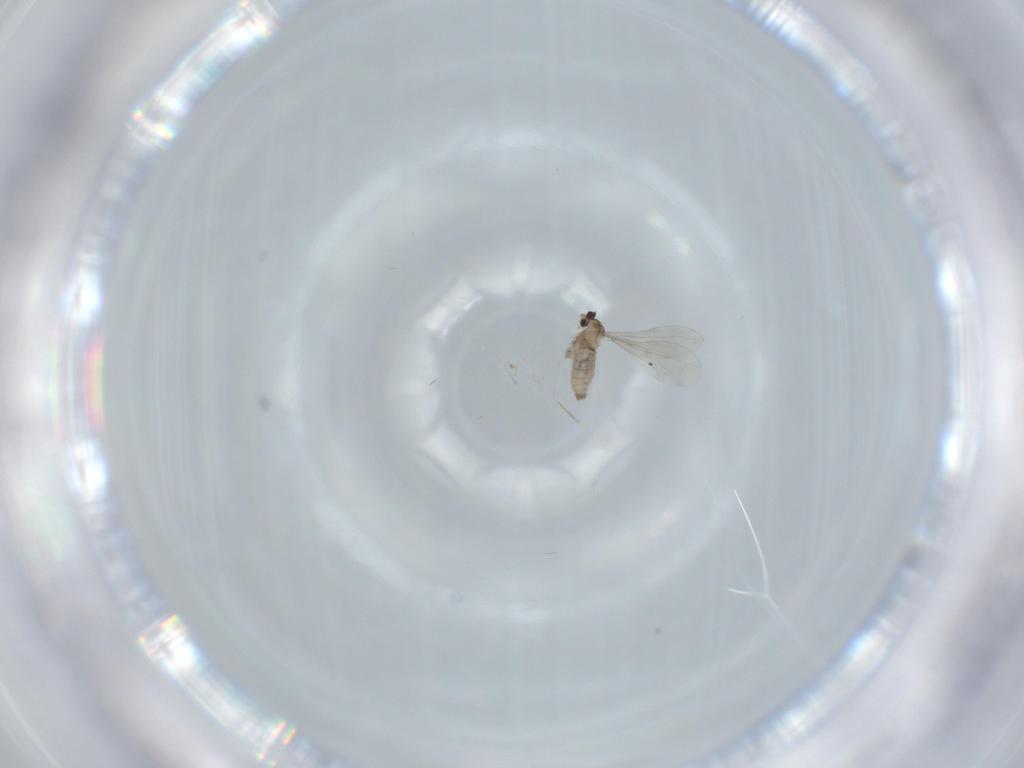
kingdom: Animalia
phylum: Arthropoda
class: Insecta
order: Diptera
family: Cecidomyiidae
